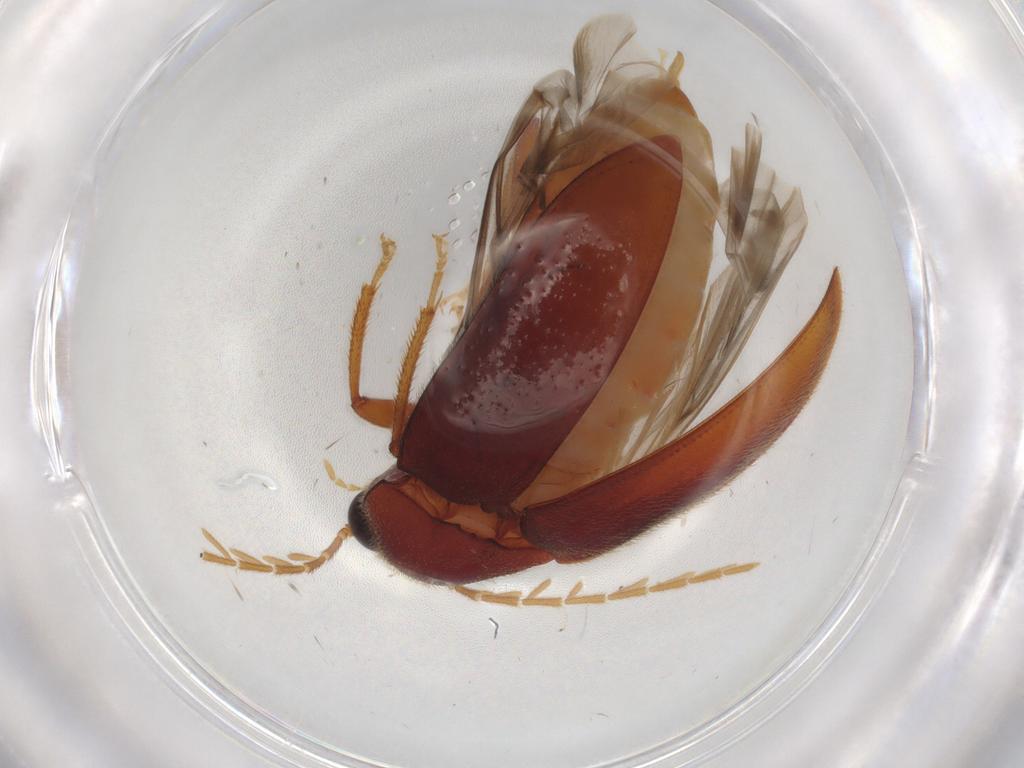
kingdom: Animalia
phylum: Arthropoda
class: Insecta
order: Coleoptera
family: Ptilodactylidae
